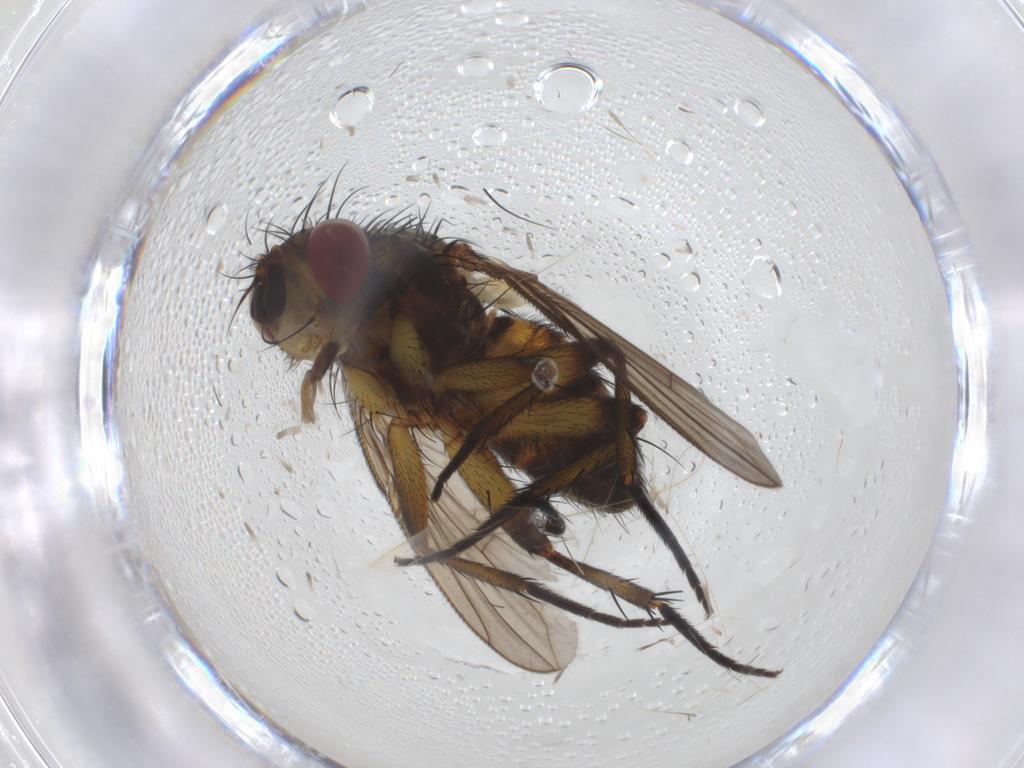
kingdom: Animalia
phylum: Arthropoda
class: Insecta
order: Diptera
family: Tachinidae
